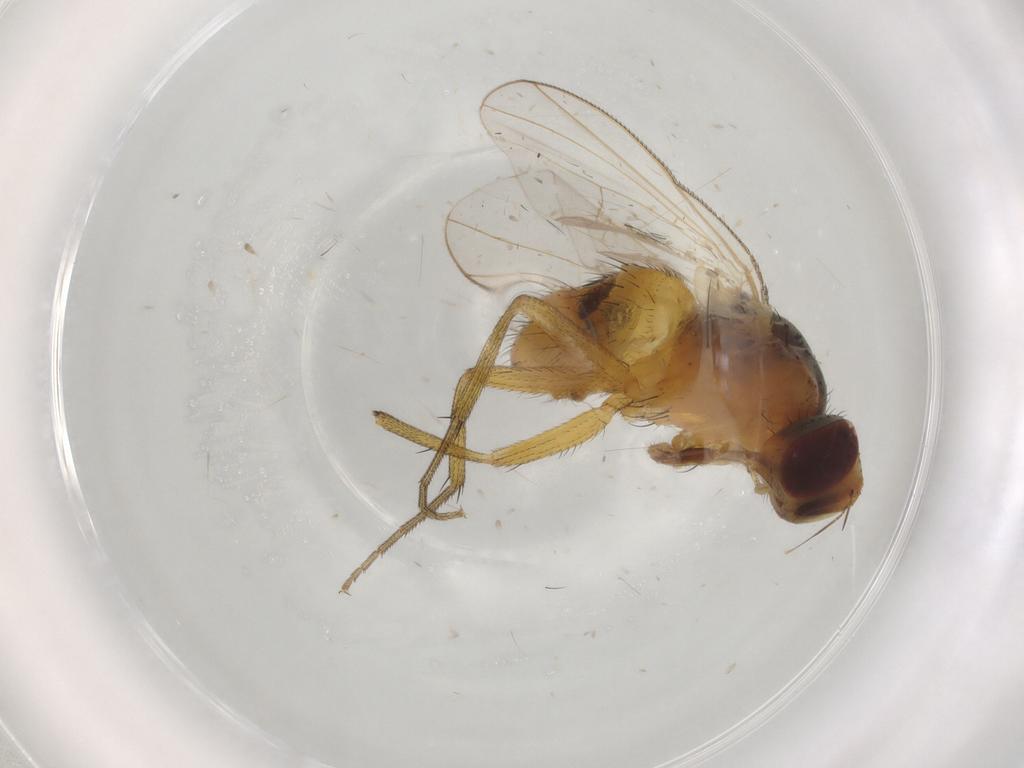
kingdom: Animalia
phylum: Arthropoda
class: Insecta
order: Diptera
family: Muscidae
